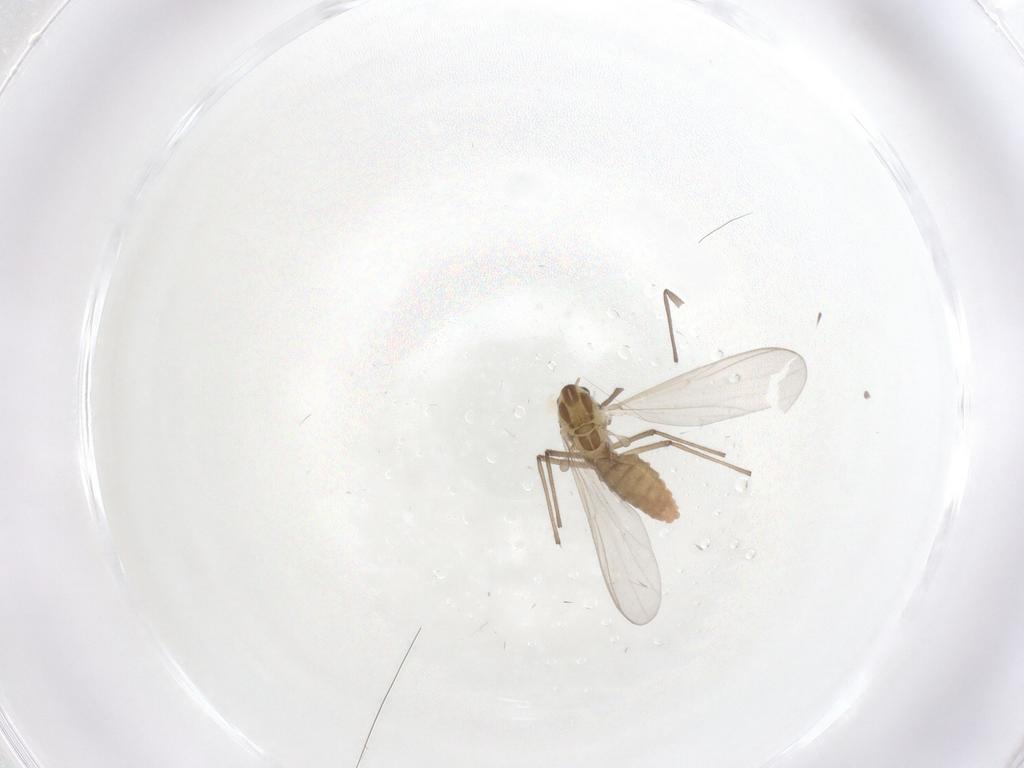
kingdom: Animalia
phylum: Arthropoda
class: Insecta
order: Diptera
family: Chironomidae
